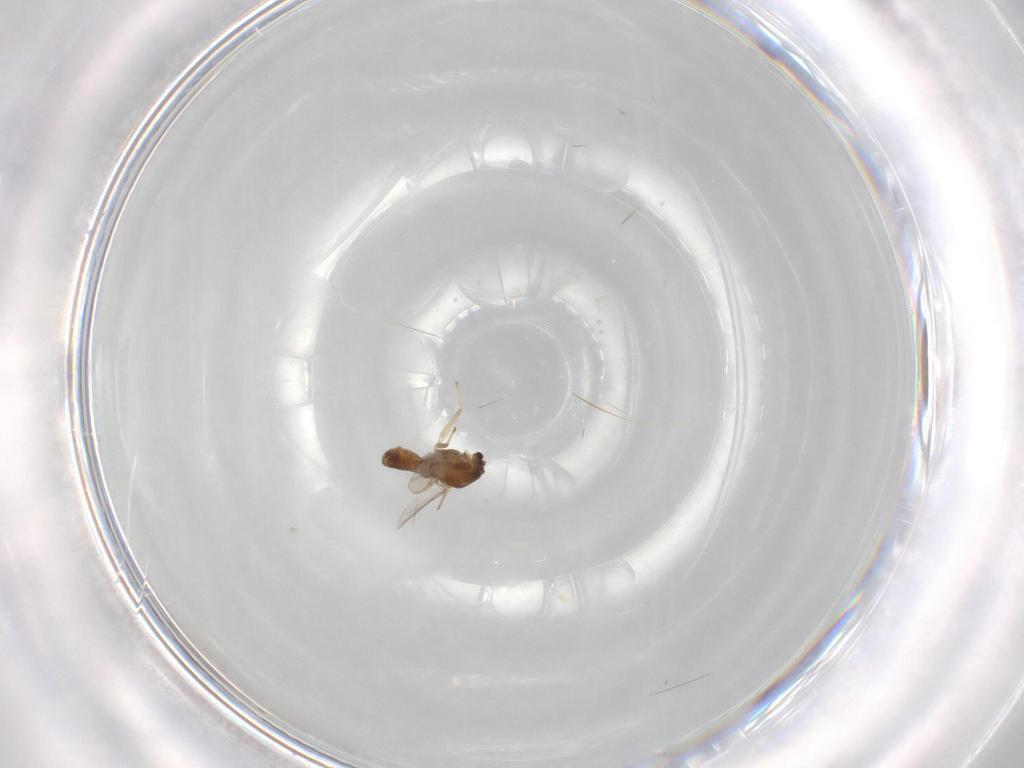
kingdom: Animalia
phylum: Arthropoda
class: Insecta
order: Diptera
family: Chironomidae
